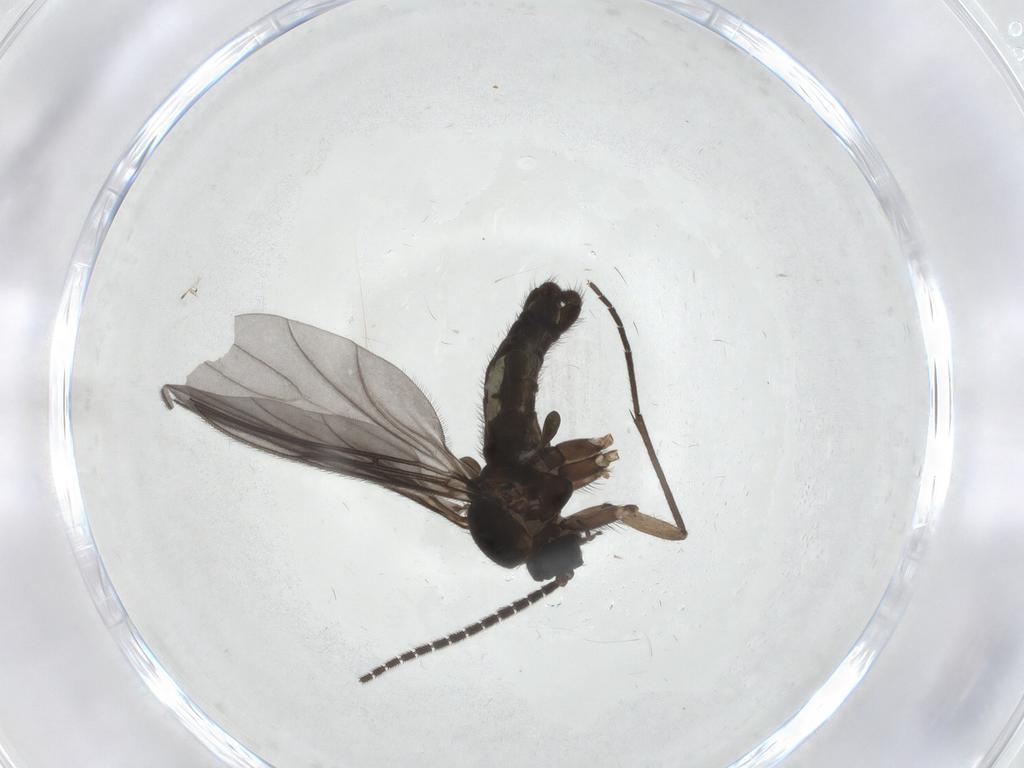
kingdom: Animalia
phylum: Arthropoda
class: Insecta
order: Diptera
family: Sciaridae
